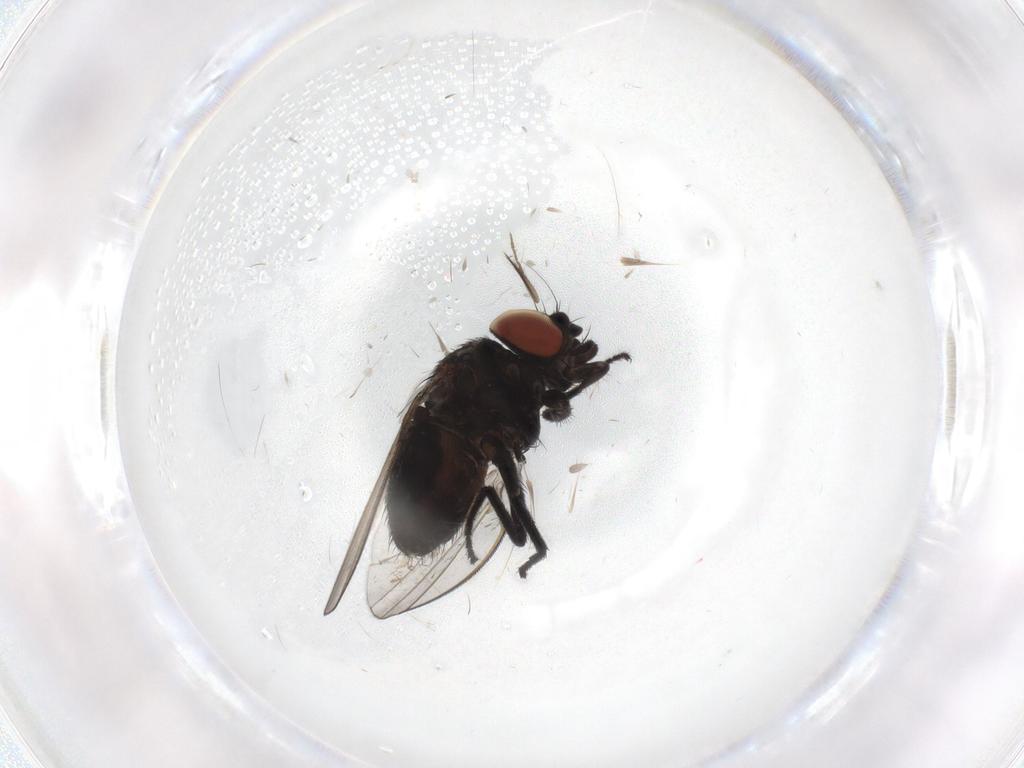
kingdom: Animalia
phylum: Arthropoda
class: Insecta
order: Diptera
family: Milichiidae
